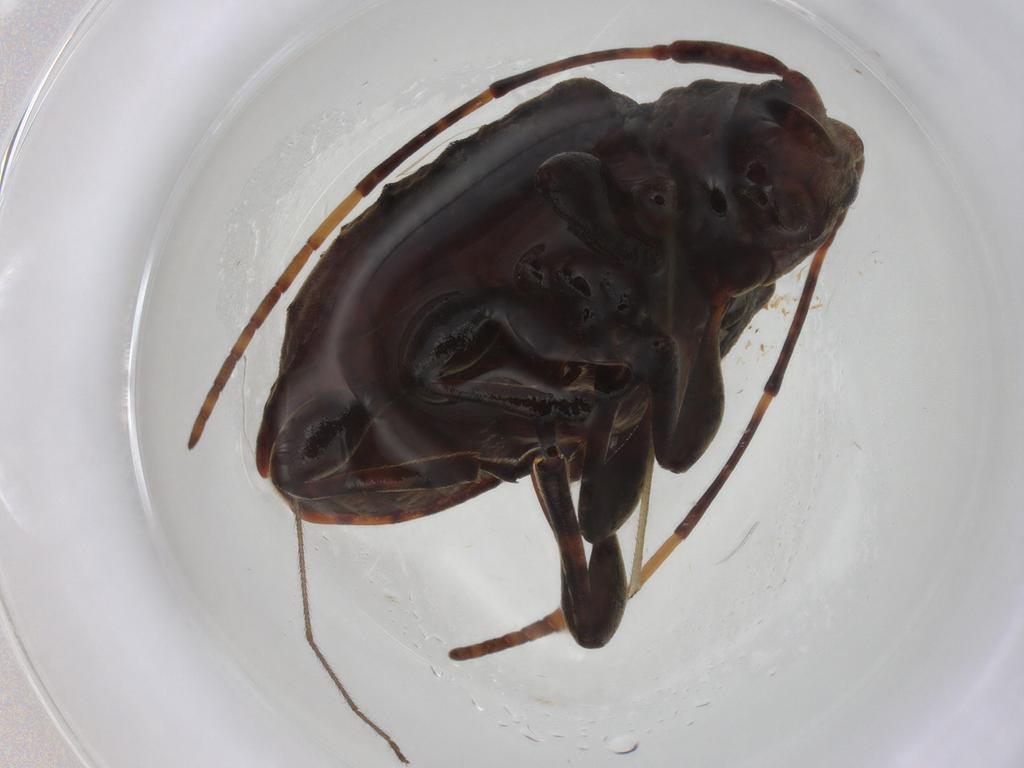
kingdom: Animalia
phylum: Arthropoda
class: Insecta
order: Coleoptera
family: Cerambycidae
